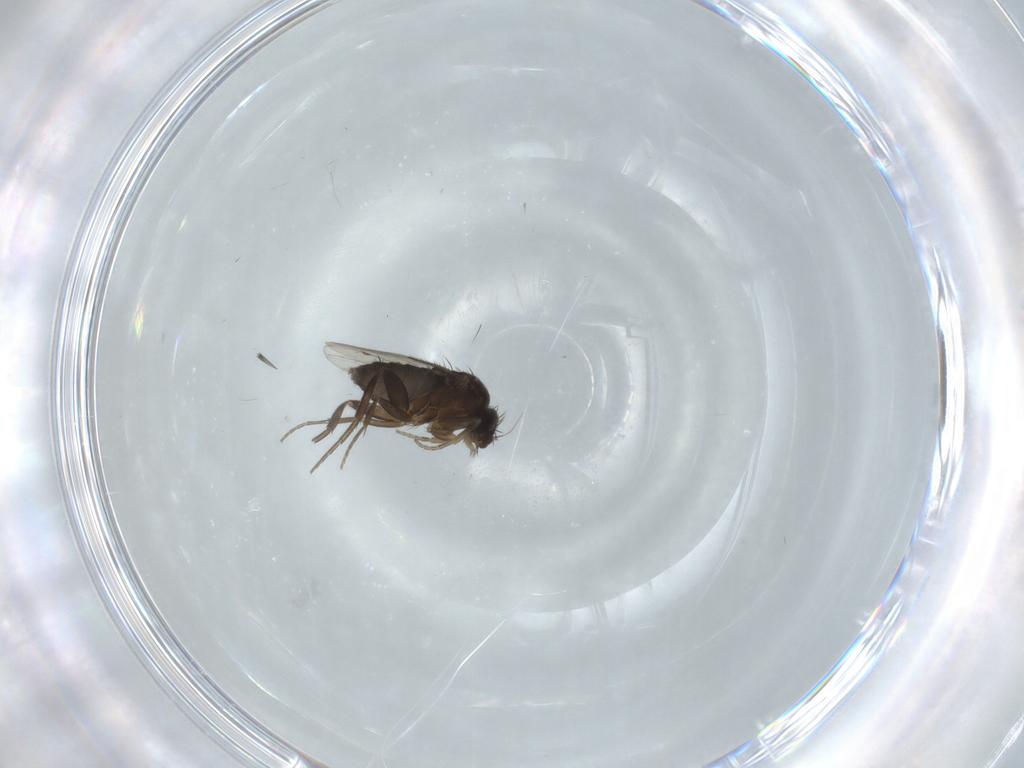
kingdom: Animalia
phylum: Arthropoda
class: Insecta
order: Diptera
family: Phoridae
